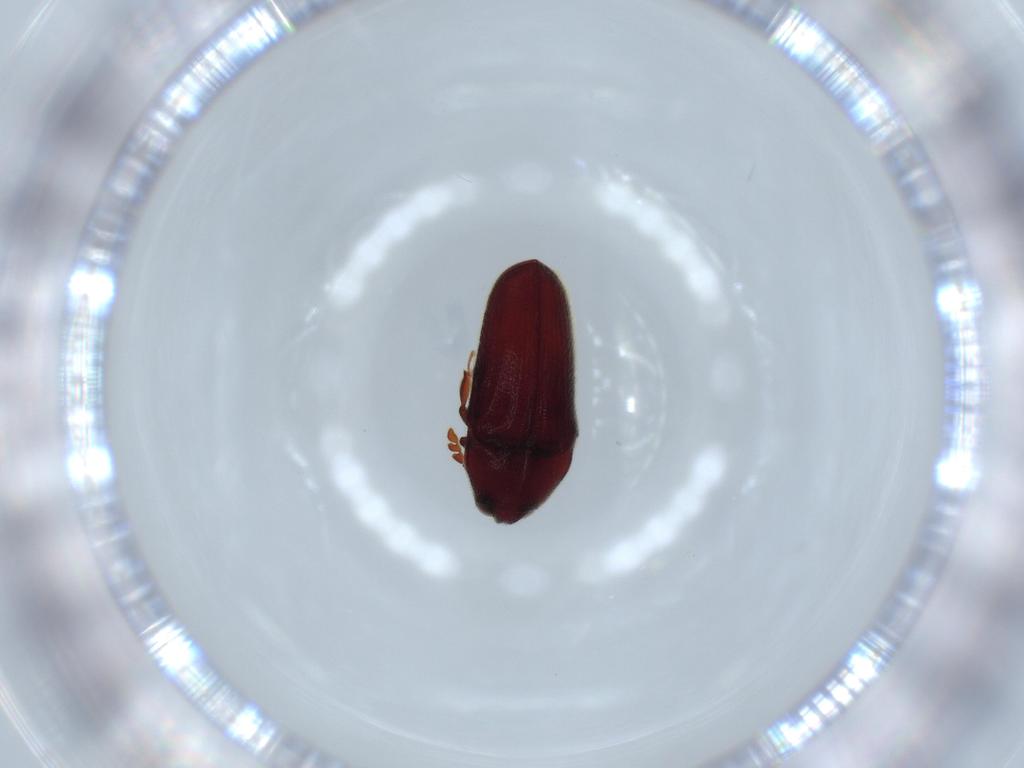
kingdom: Animalia
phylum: Arthropoda
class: Insecta
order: Coleoptera
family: Throscidae
